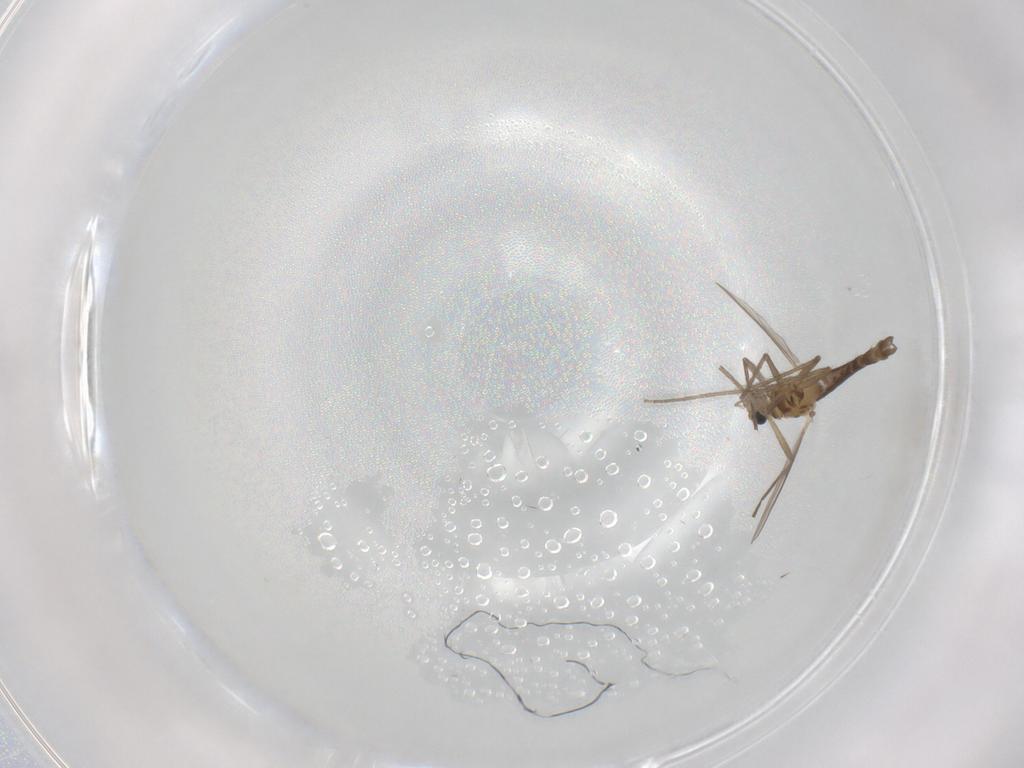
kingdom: Animalia
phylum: Arthropoda
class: Insecta
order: Diptera
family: Chironomidae
